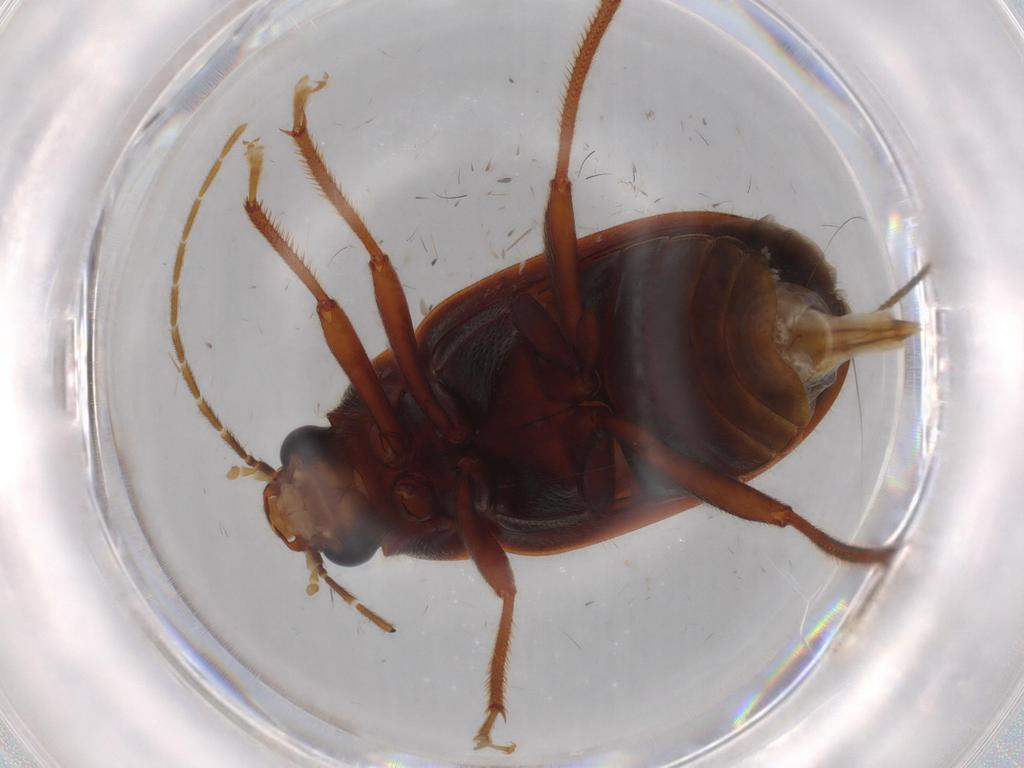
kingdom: Animalia
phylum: Arthropoda
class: Insecta
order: Coleoptera
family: Ptilodactylidae
